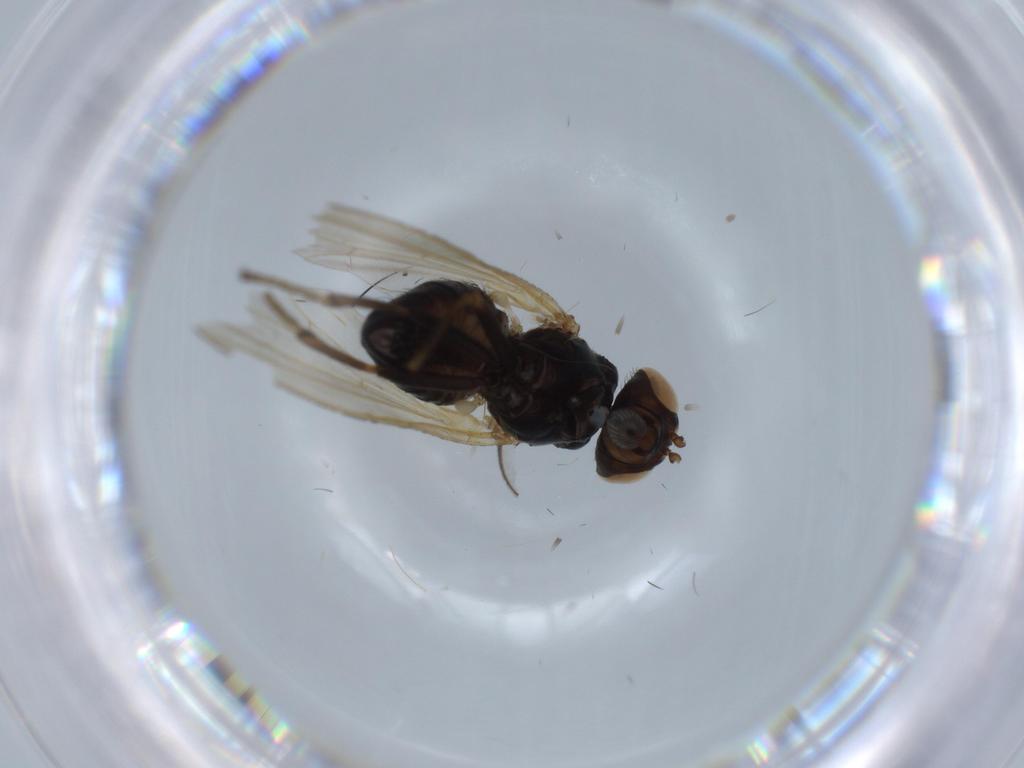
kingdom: Animalia
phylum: Arthropoda
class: Insecta
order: Diptera
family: Lauxaniidae
